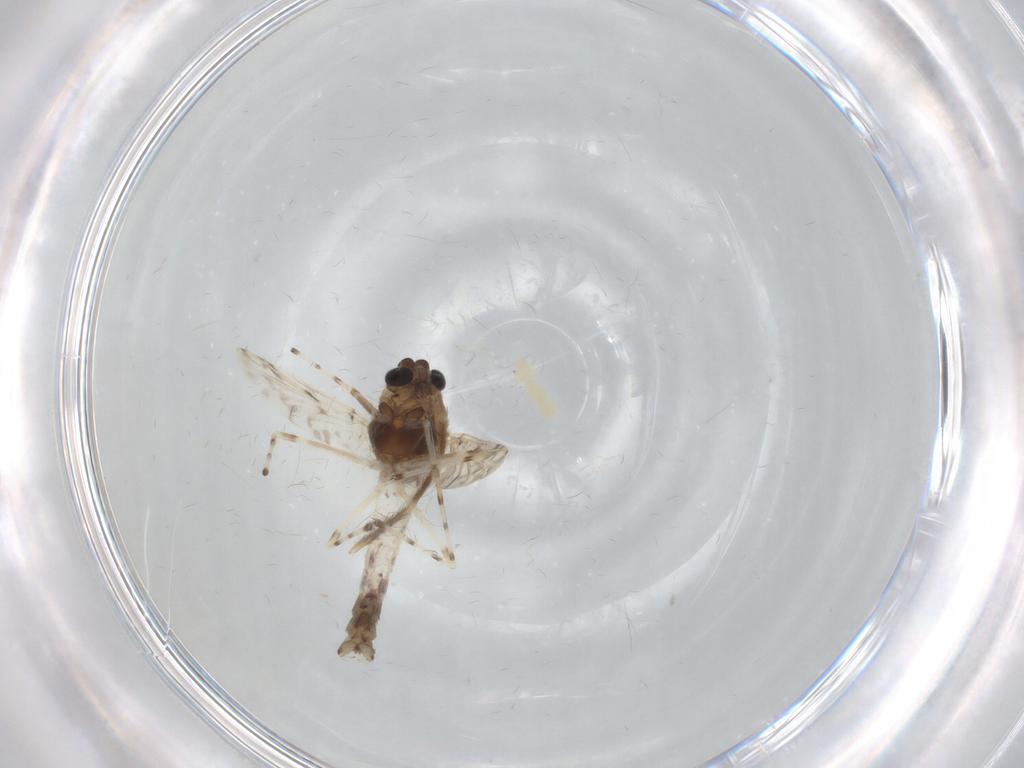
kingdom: Animalia
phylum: Arthropoda
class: Insecta
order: Diptera
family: Chironomidae
